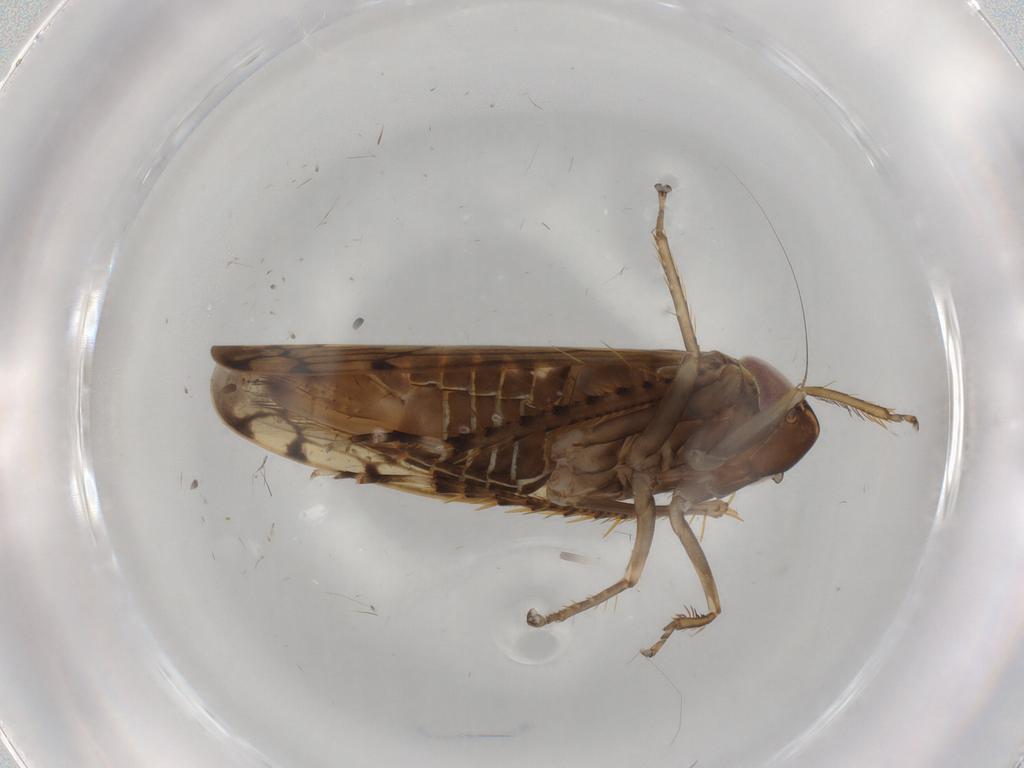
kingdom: Animalia
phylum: Arthropoda
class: Insecta
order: Hemiptera
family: Cicadellidae
